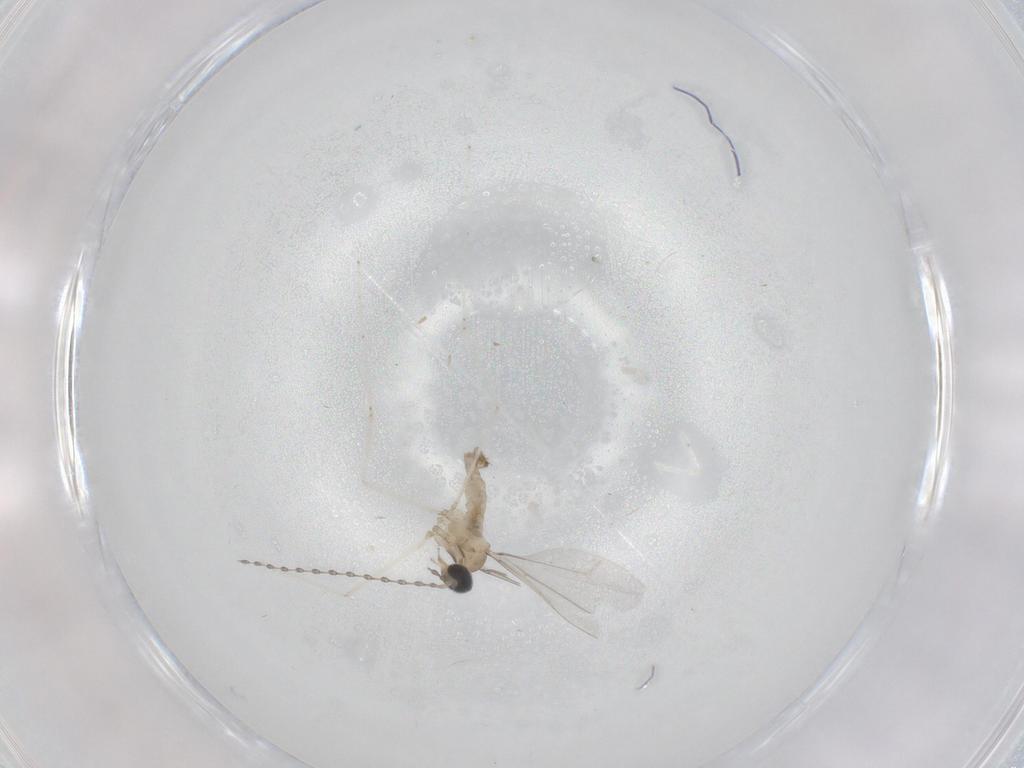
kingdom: Animalia
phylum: Arthropoda
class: Insecta
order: Diptera
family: Cecidomyiidae
